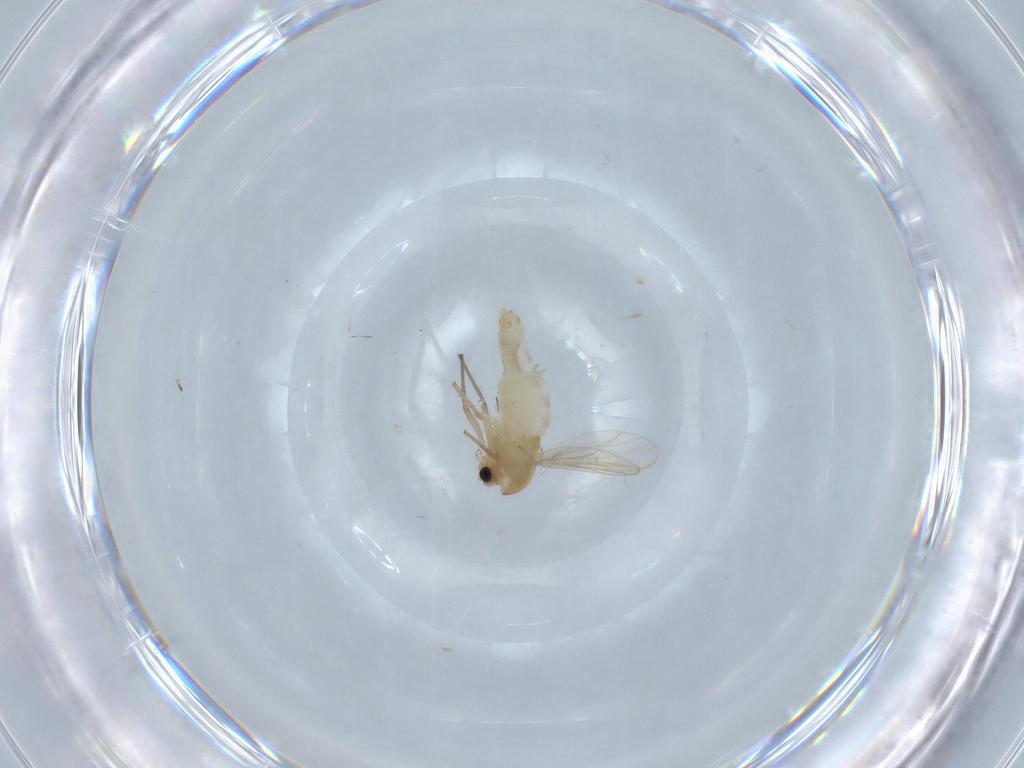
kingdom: Animalia
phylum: Arthropoda
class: Insecta
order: Diptera
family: Chironomidae
